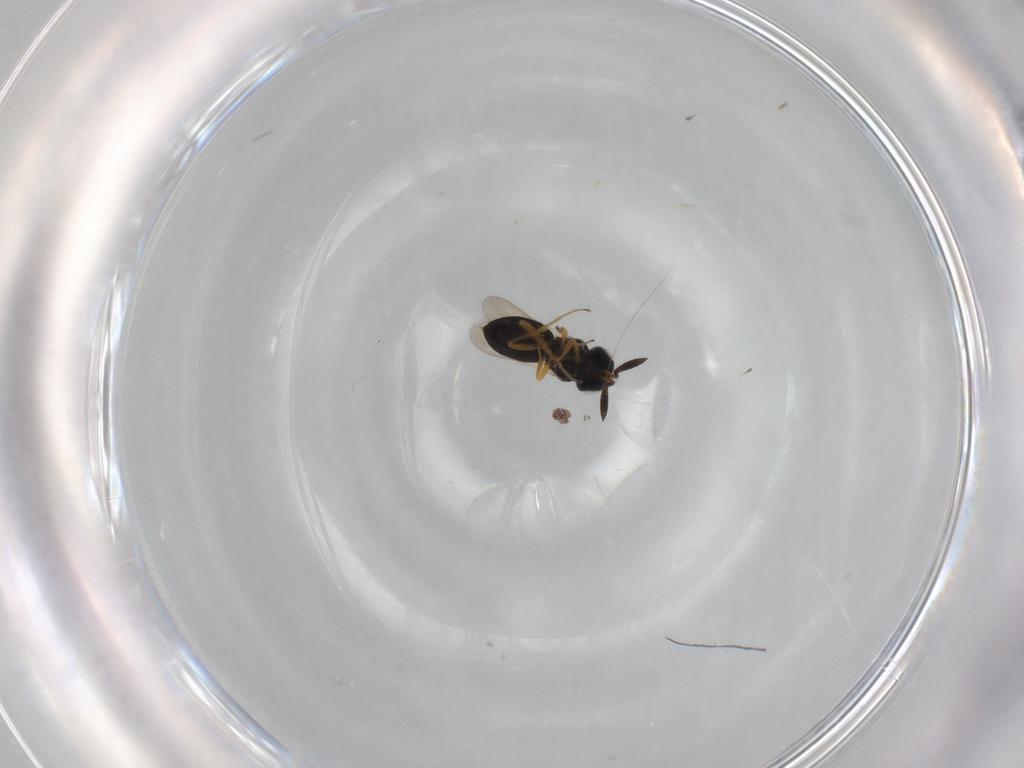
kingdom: Animalia
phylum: Arthropoda
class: Insecta
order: Hymenoptera
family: Scelionidae
